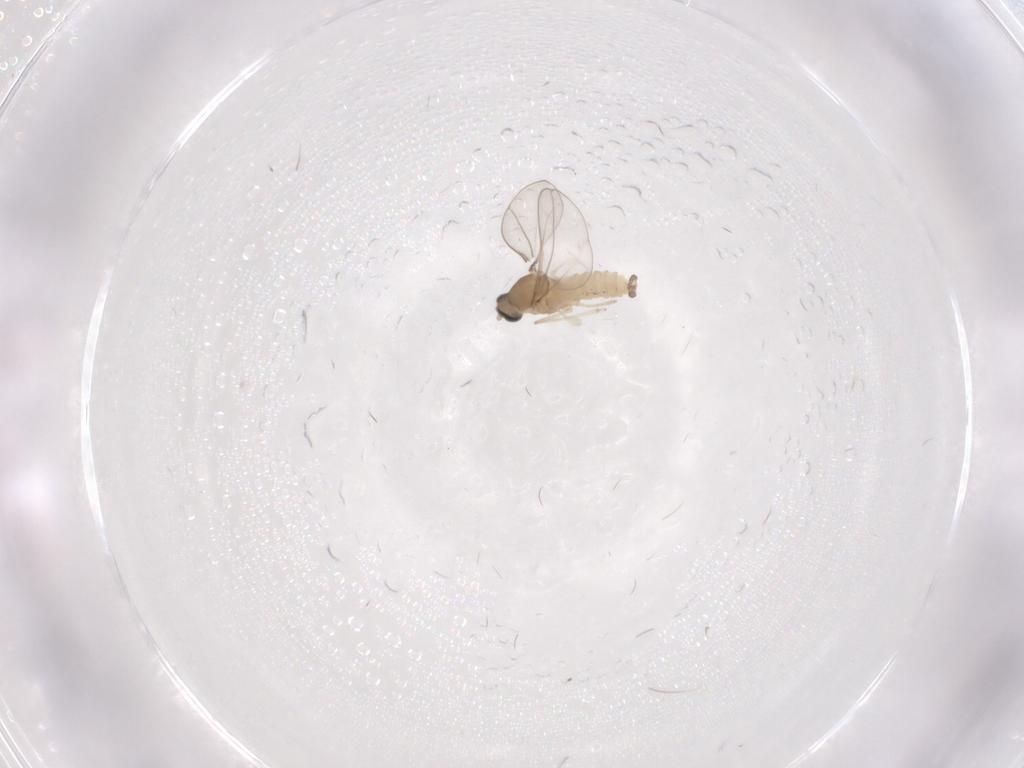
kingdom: Animalia
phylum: Arthropoda
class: Insecta
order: Diptera
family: Cecidomyiidae
